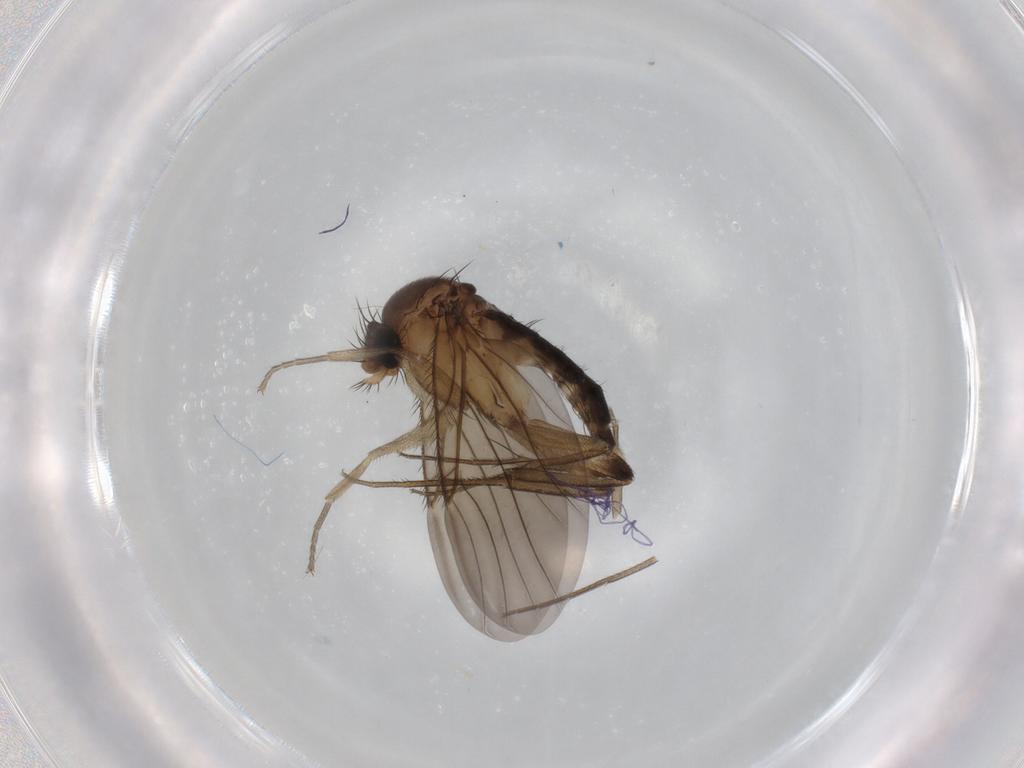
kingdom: Animalia
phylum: Arthropoda
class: Insecta
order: Diptera
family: Phoridae
